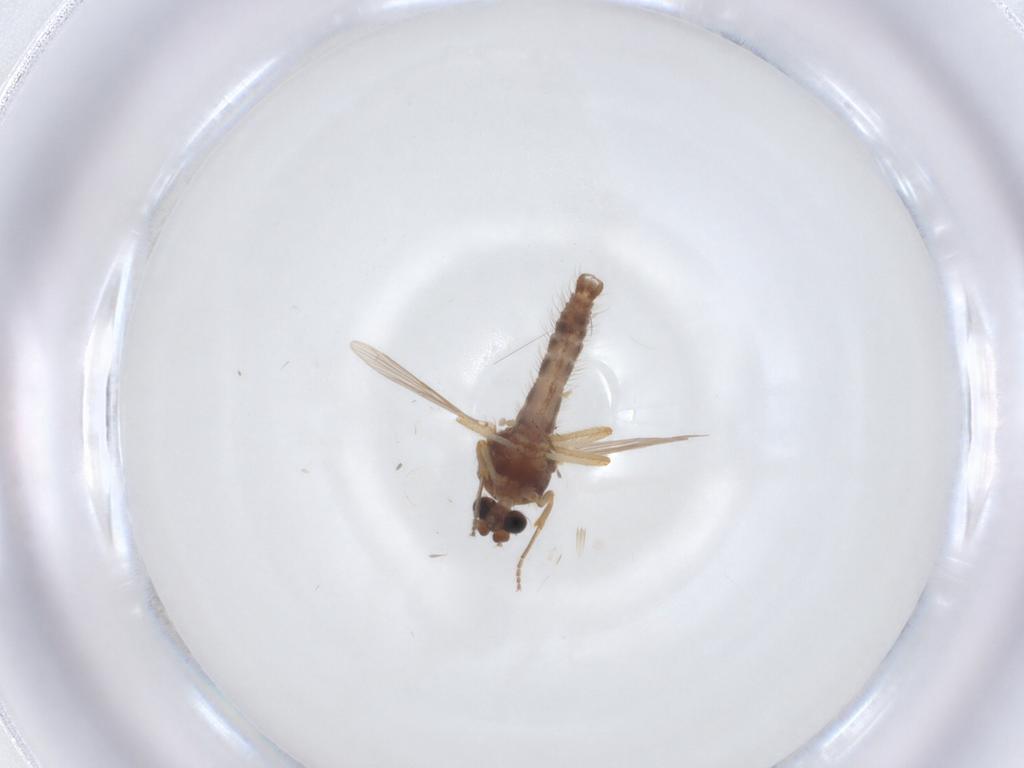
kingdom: Animalia
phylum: Arthropoda
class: Insecta
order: Diptera
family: Ceratopogonidae
